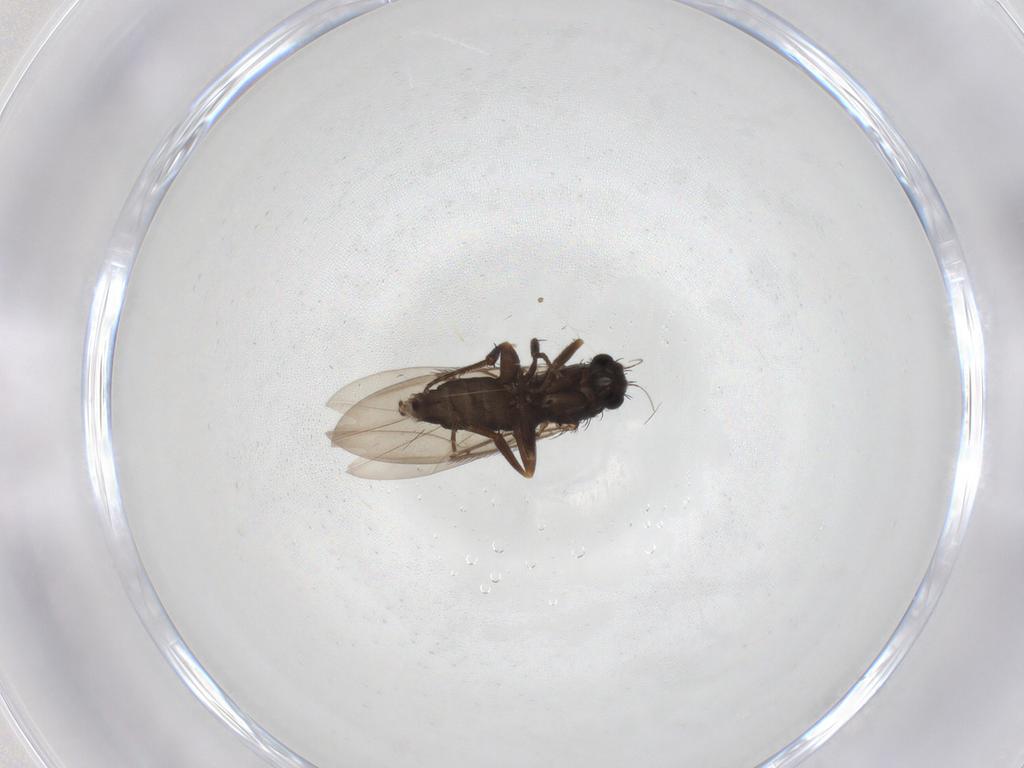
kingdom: Animalia
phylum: Arthropoda
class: Insecta
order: Diptera
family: Phoridae
